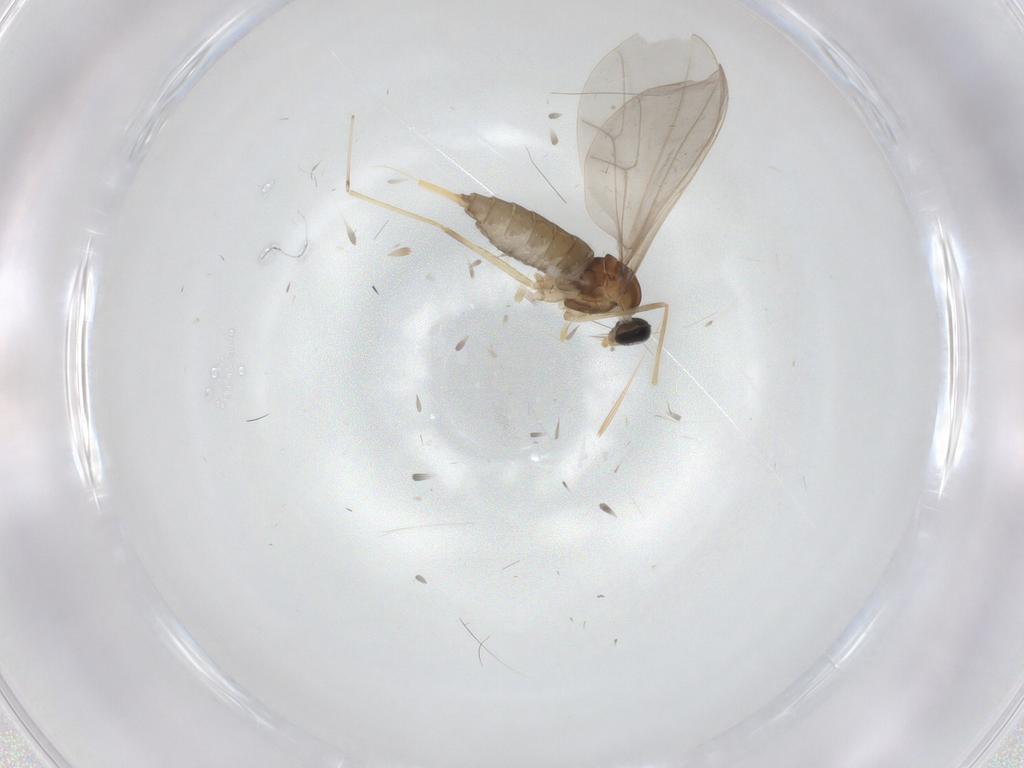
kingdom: Animalia
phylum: Arthropoda
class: Insecta
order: Diptera
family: Cecidomyiidae
